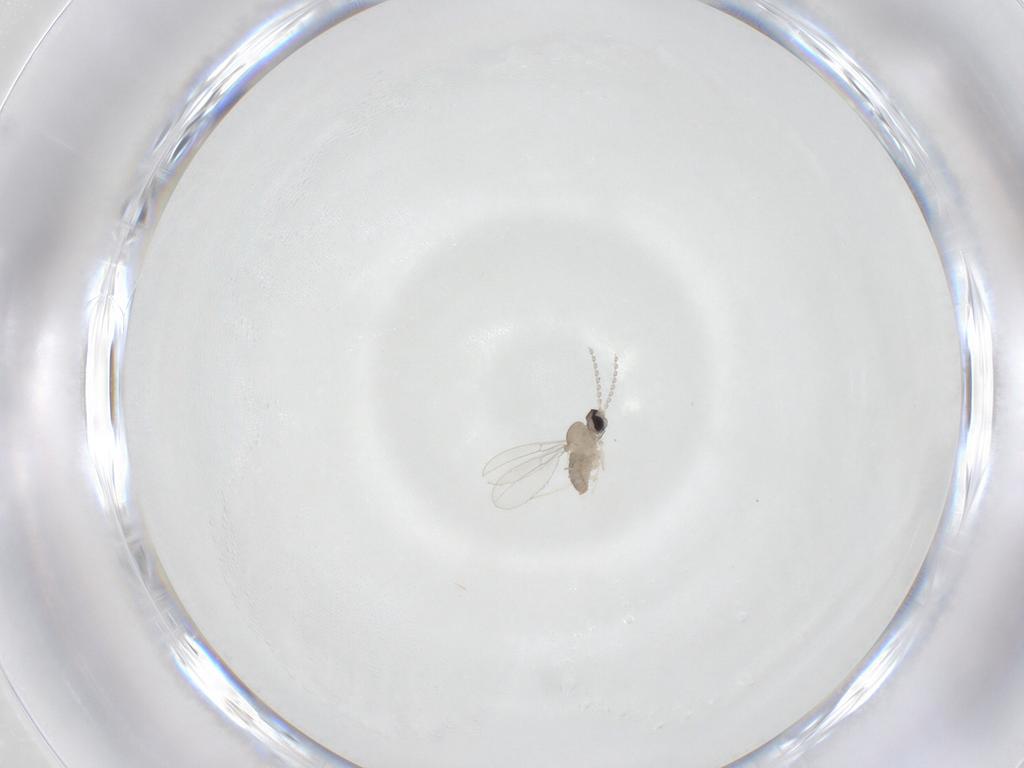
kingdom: Animalia
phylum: Arthropoda
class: Insecta
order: Diptera
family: Cecidomyiidae
